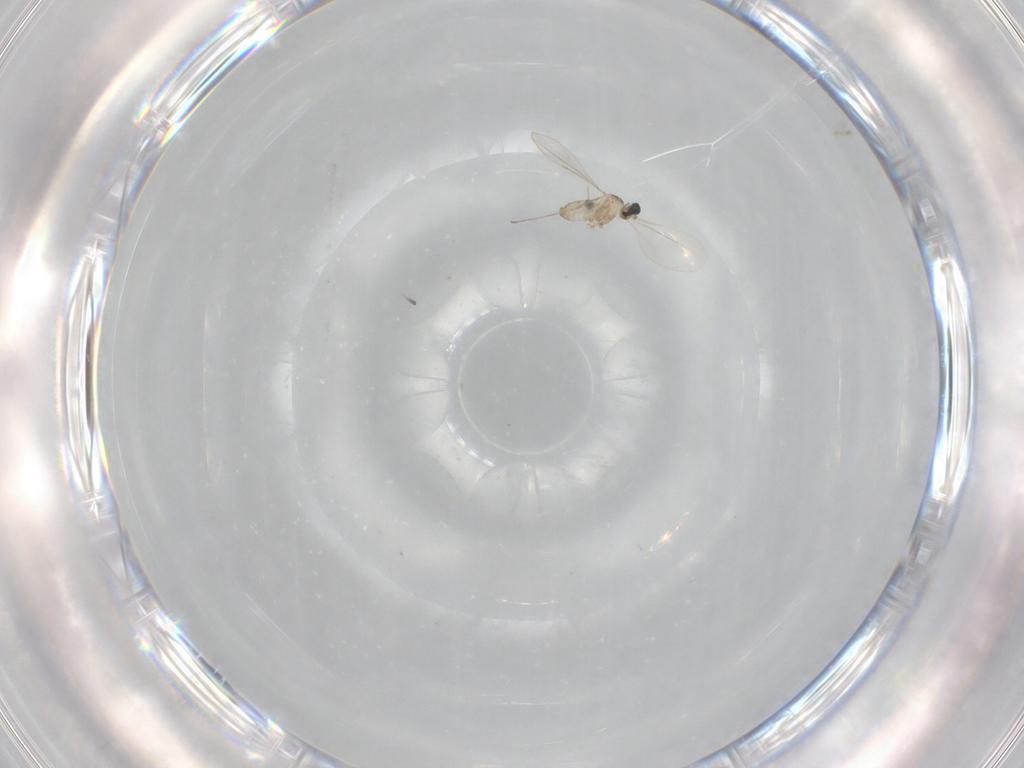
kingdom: Animalia
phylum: Arthropoda
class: Insecta
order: Diptera
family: Cecidomyiidae
